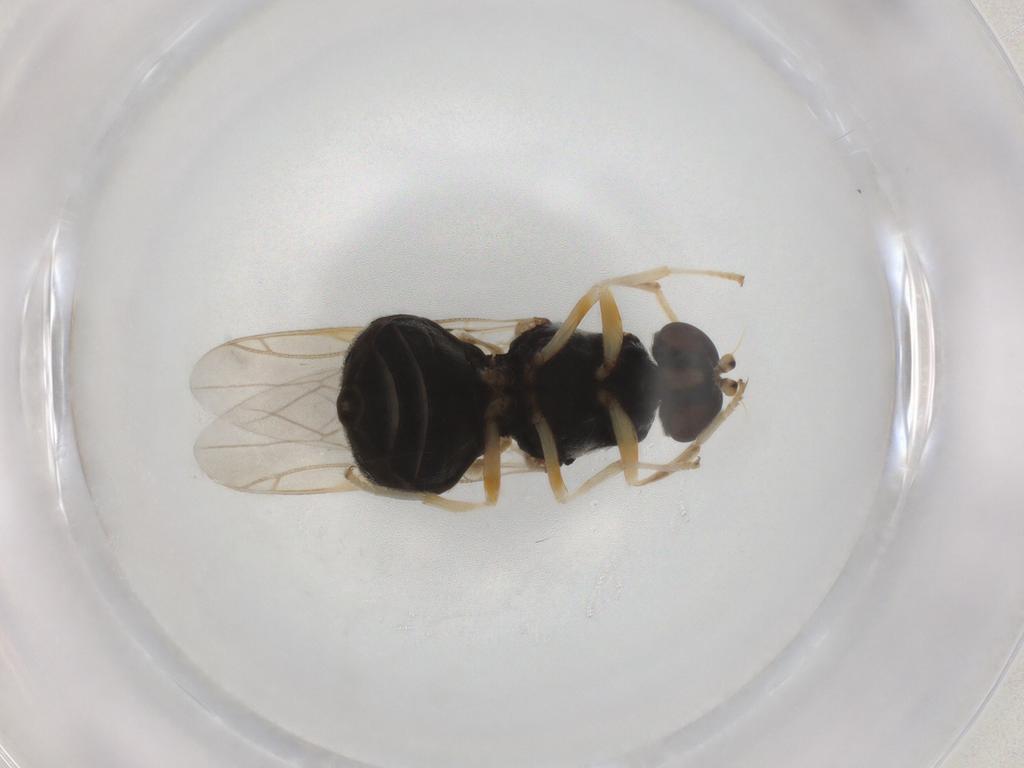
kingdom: Animalia
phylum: Arthropoda
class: Insecta
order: Diptera
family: Stratiomyidae
